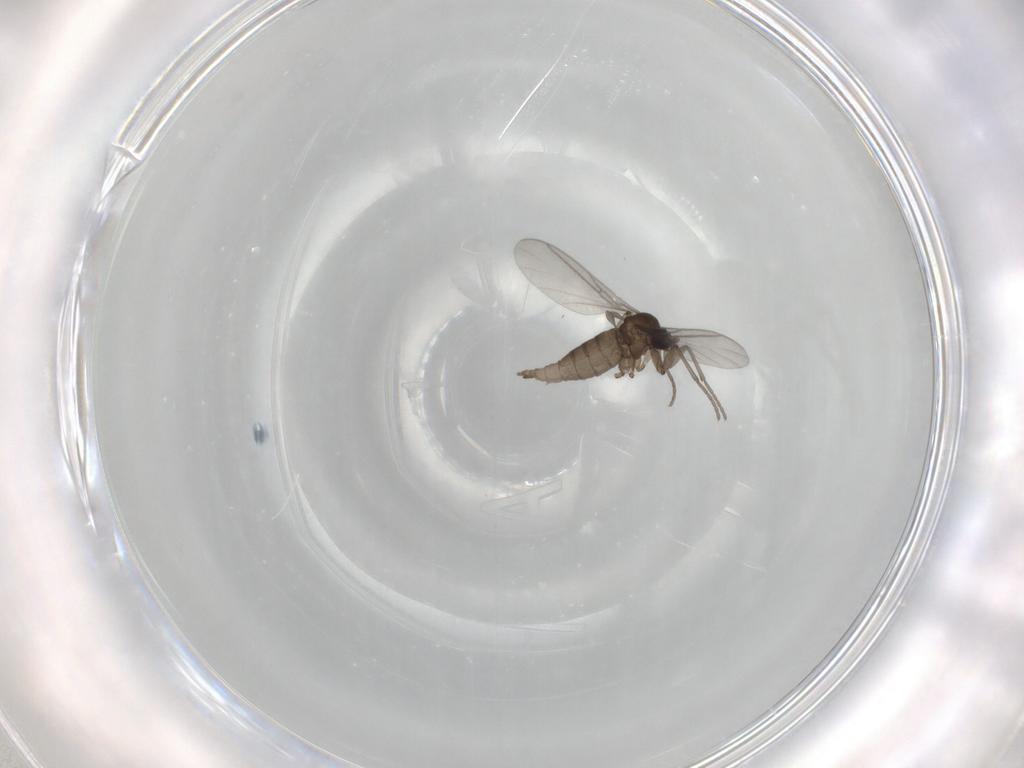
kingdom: Animalia
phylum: Arthropoda
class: Insecta
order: Diptera
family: Sciaridae
